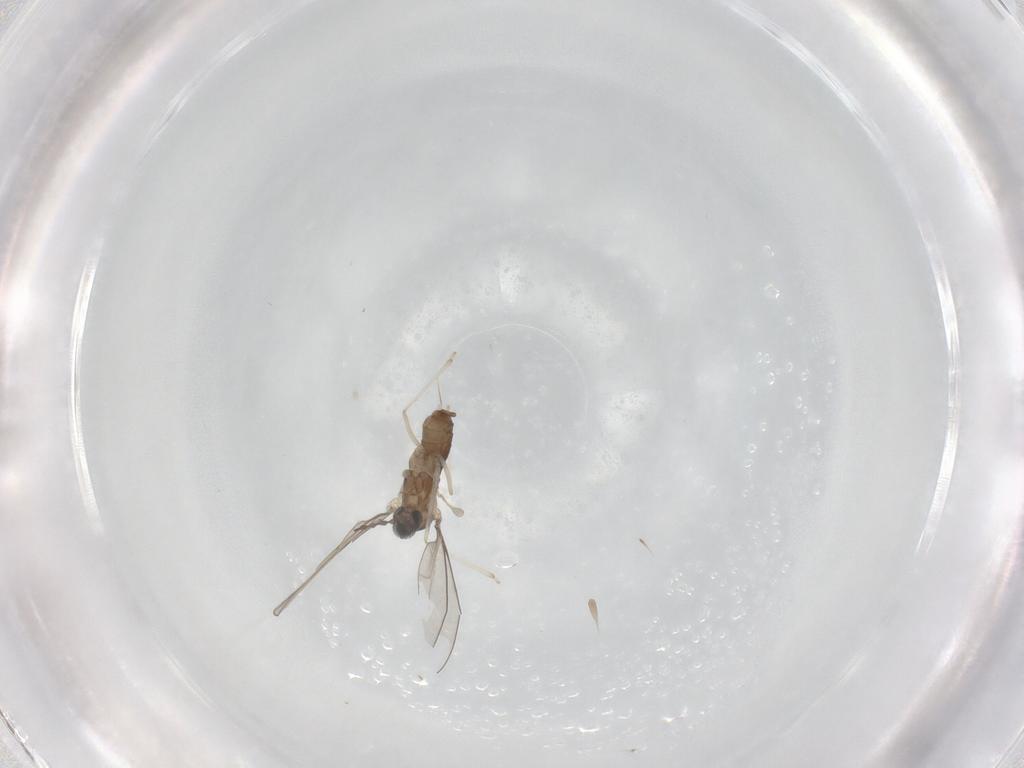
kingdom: Animalia
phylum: Arthropoda
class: Insecta
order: Diptera
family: Cecidomyiidae
